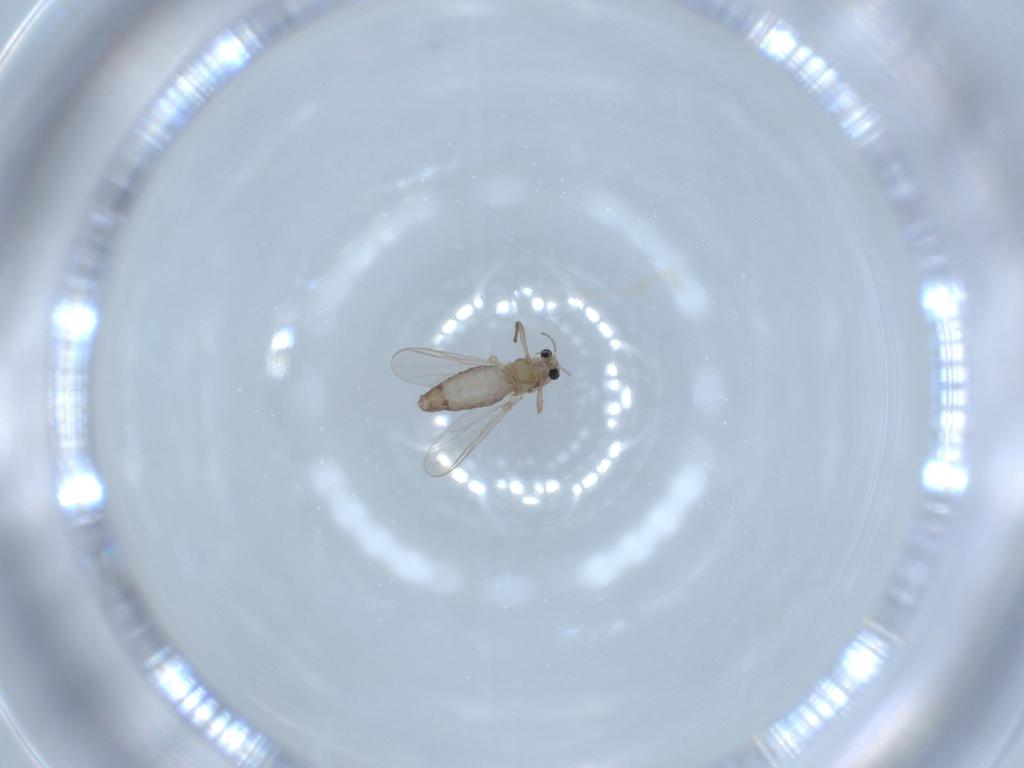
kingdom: Animalia
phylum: Arthropoda
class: Insecta
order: Diptera
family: Chironomidae
